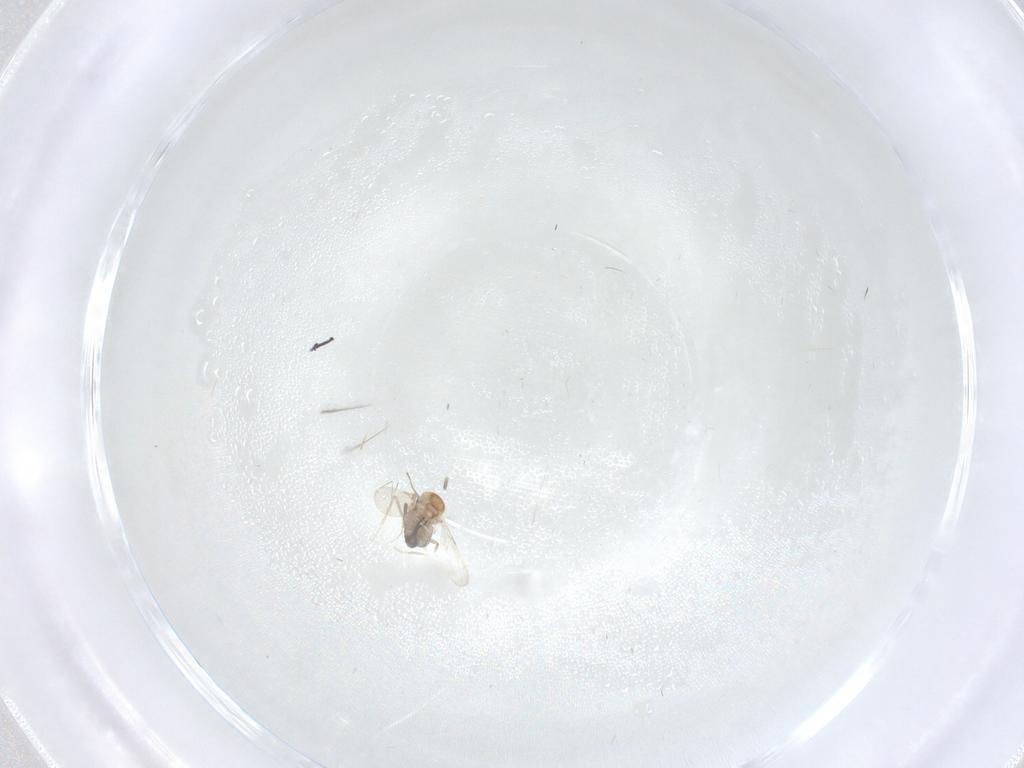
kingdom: Animalia
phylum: Arthropoda
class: Insecta
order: Diptera
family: Ceratopogonidae
